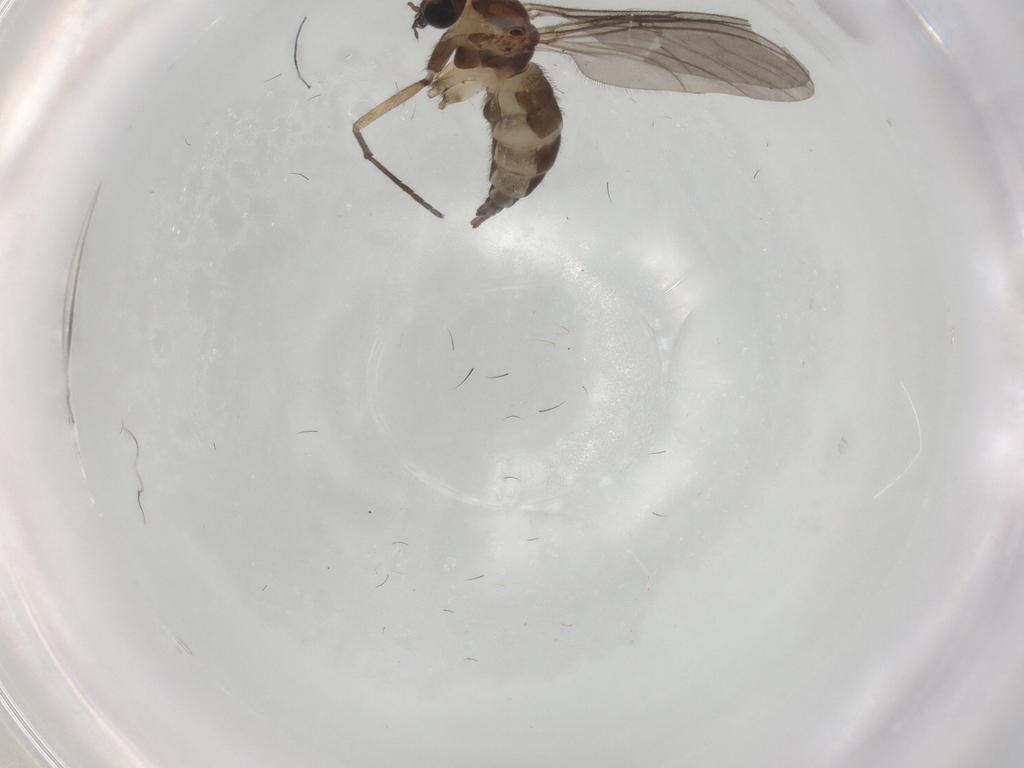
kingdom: Animalia
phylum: Arthropoda
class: Insecta
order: Diptera
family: Sciaridae
